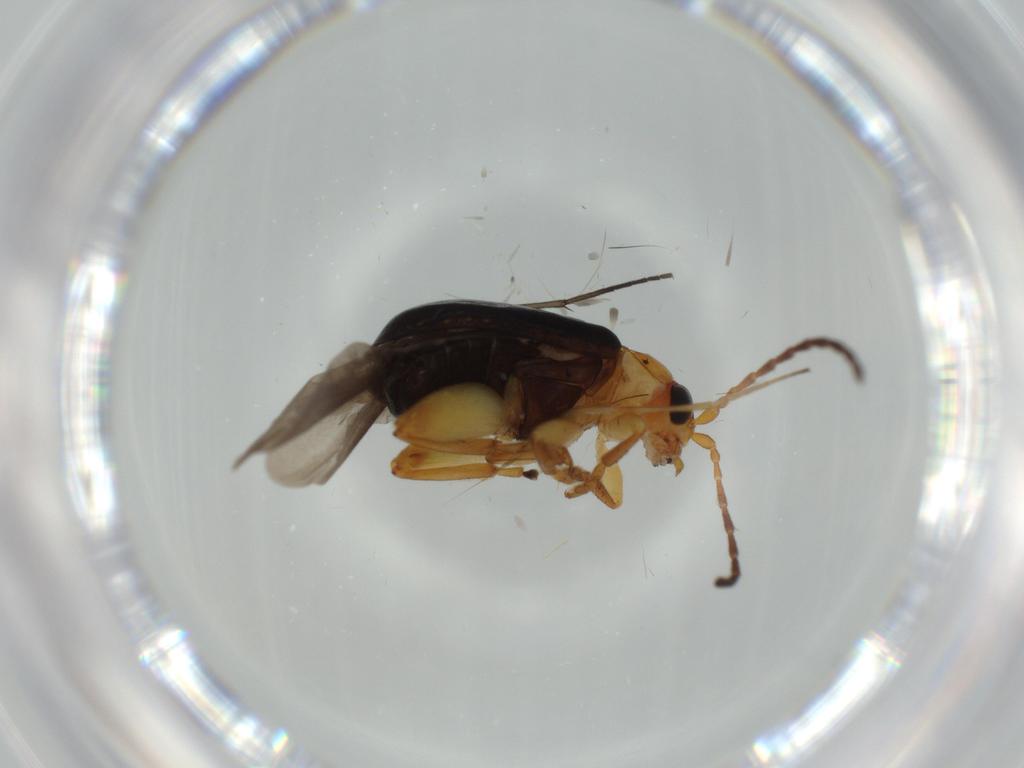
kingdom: Animalia
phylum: Arthropoda
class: Insecta
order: Coleoptera
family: Chrysomelidae
